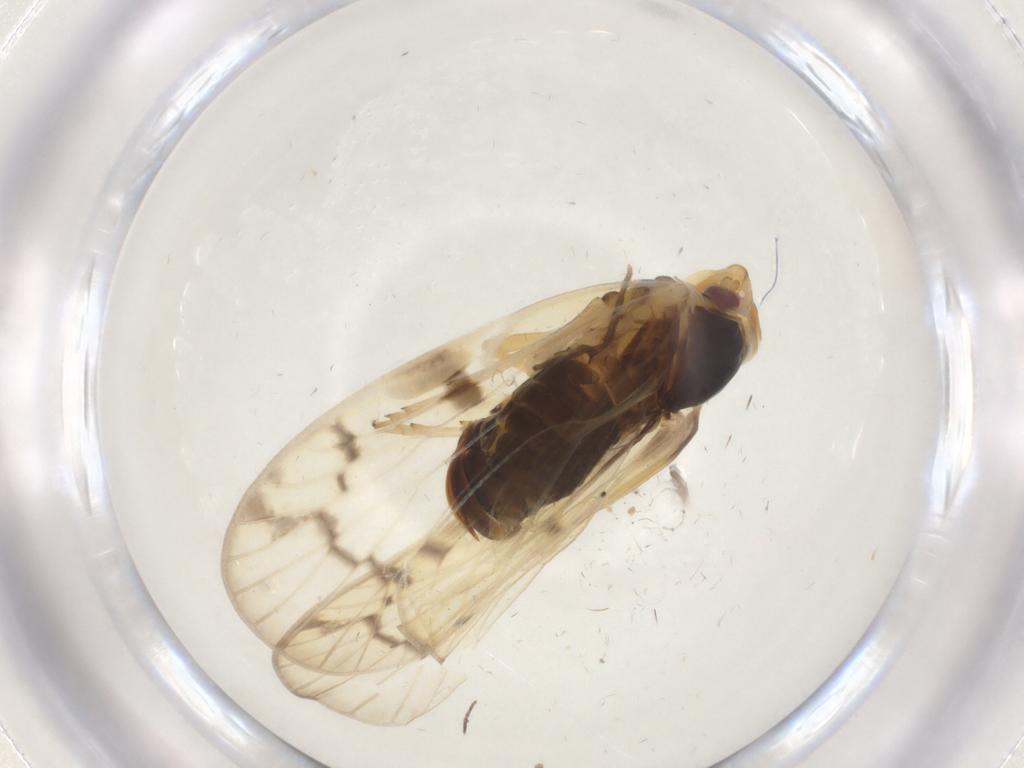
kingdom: Animalia
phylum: Arthropoda
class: Insecta
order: Hemiptera
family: Cixiidae
